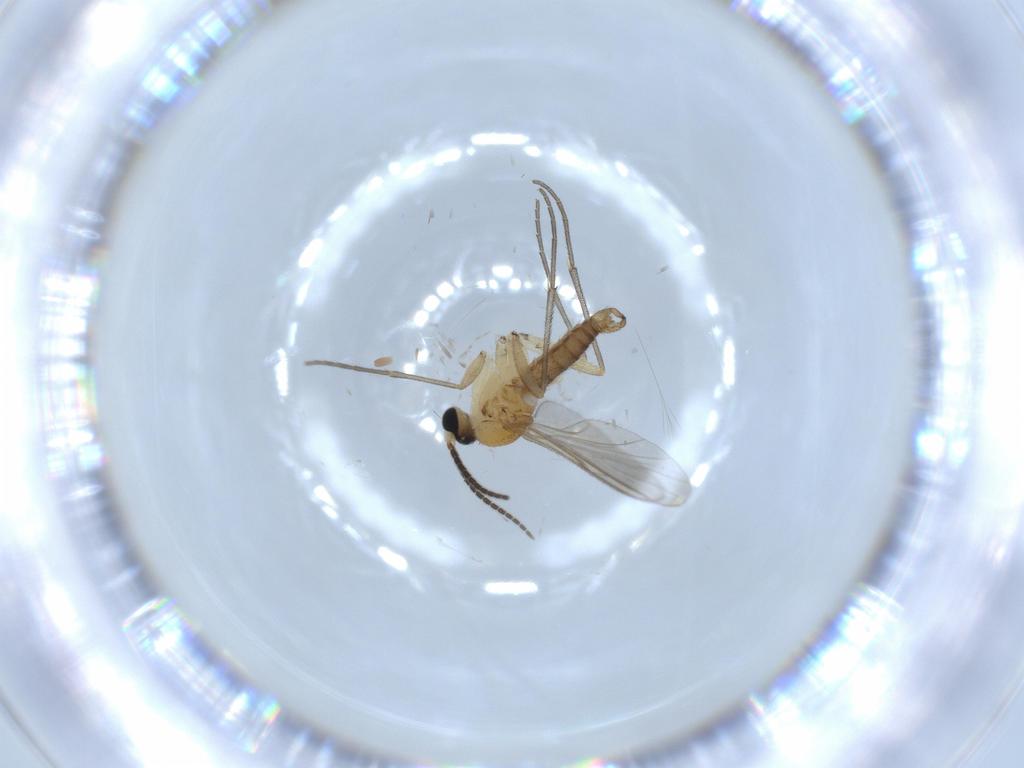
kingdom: Animalia
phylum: Arthropoda
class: Insecta
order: Diptera
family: Sciaridae
